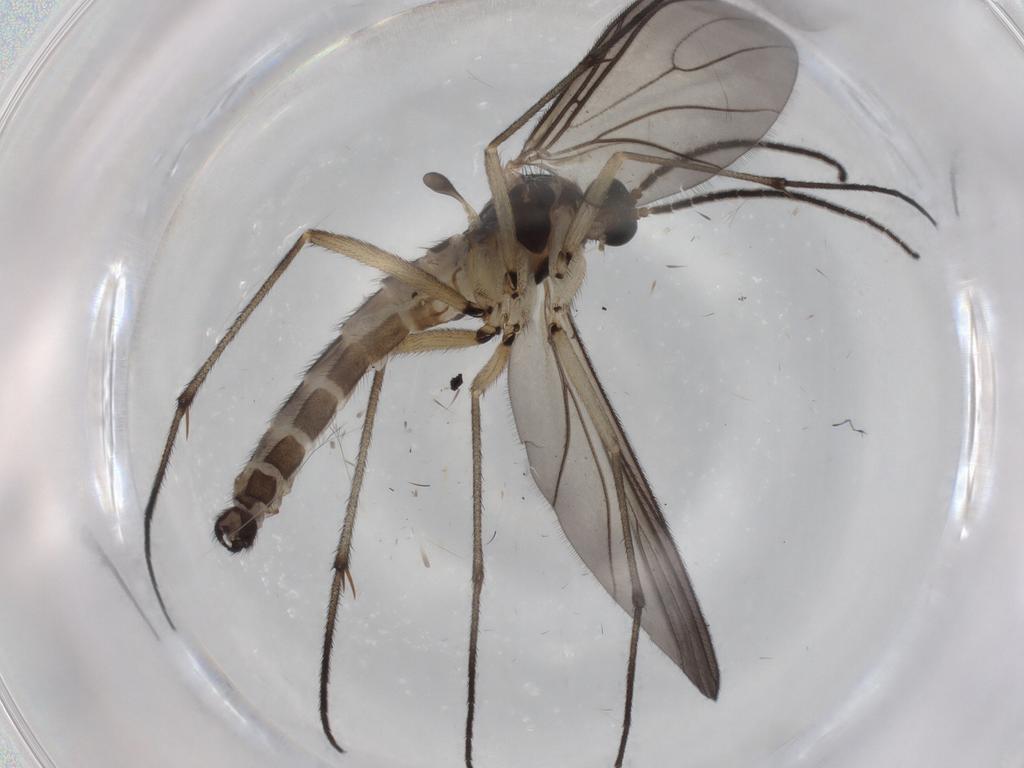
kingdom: Animalia
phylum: Arthropoda
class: Insecta
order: Diptera
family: Sciaridae
